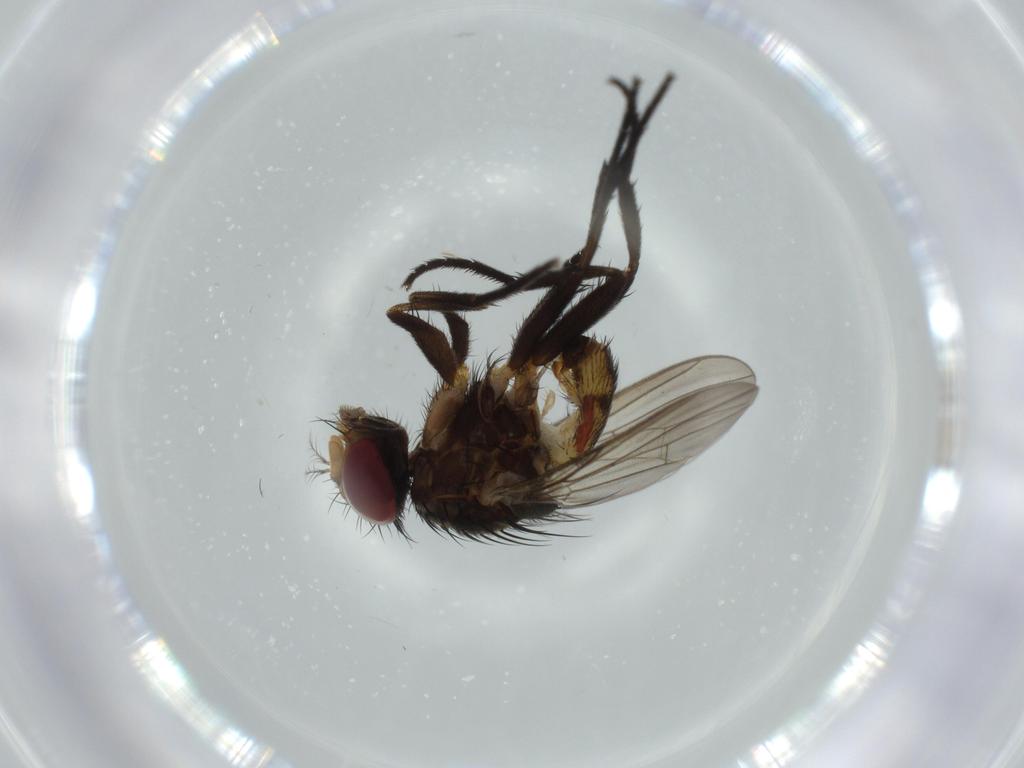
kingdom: Animalia
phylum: Arthropoda
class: Insecta
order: Diptera
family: Anthomyiidae
